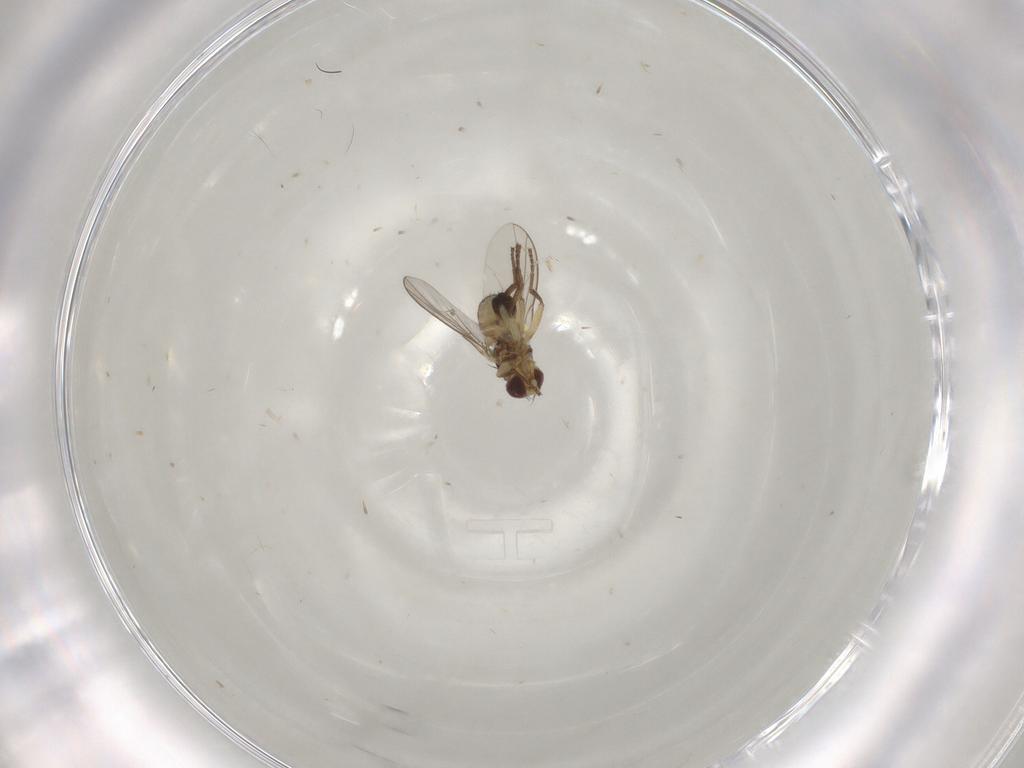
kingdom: Animalia
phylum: Arthropoda
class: Insecta
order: Diptera
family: Agromyzidae
